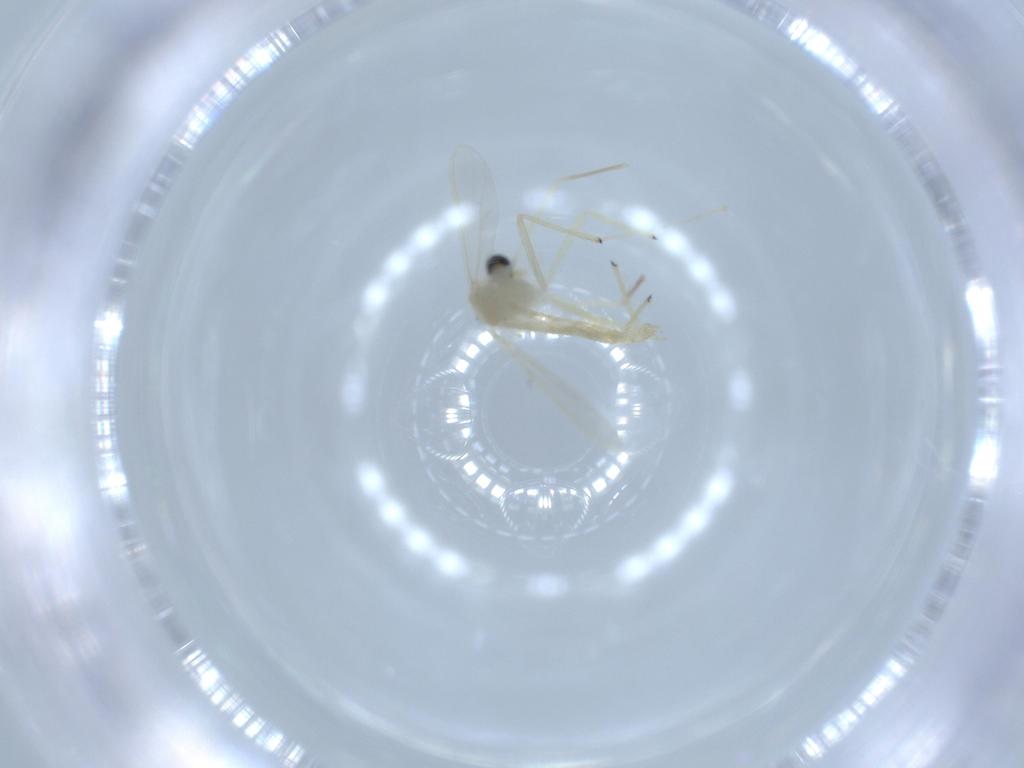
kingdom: Animalia
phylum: Arthropoda
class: Insecta
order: Diptera
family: Chironomidae
